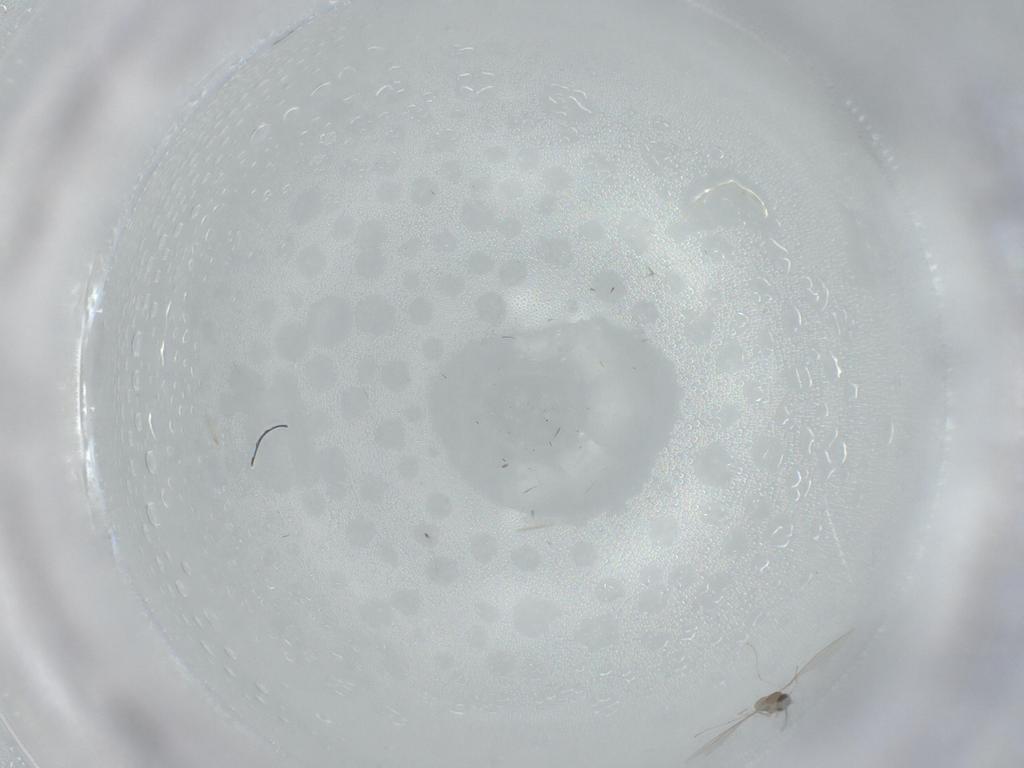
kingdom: Animalia
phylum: Arthropoda
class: Insecta
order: Diptera
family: Cecidomyiidae
